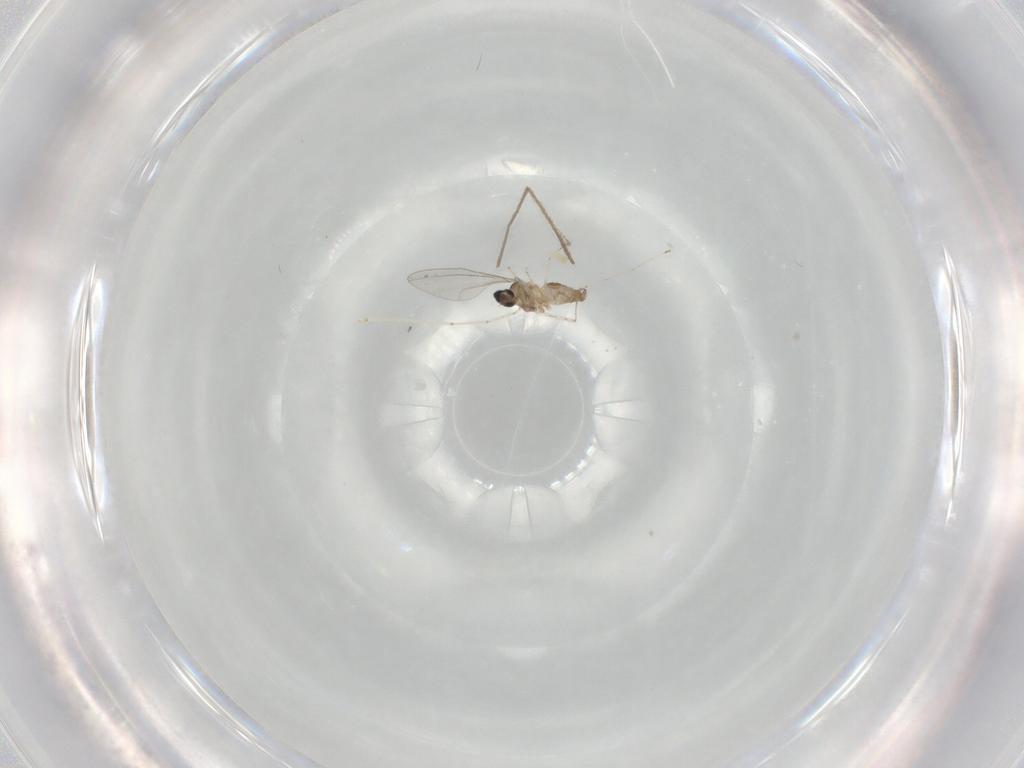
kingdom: Animalia
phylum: Arthropoda
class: Insecta
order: Diptera
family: Cecidomyiidae
